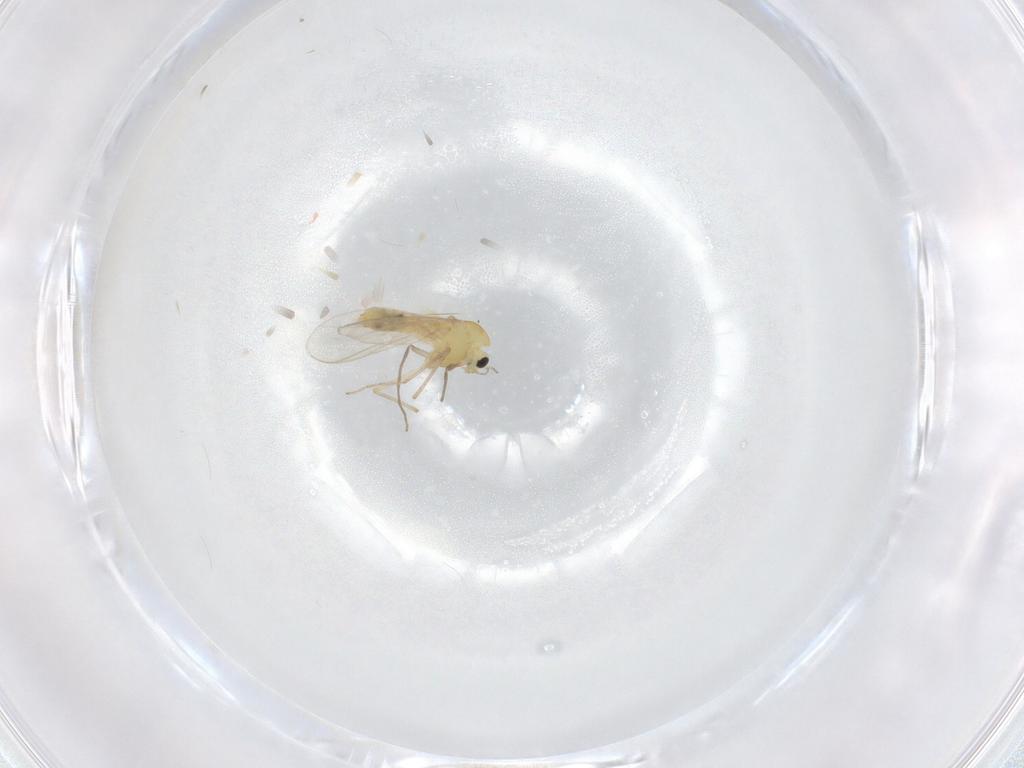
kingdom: Animalia
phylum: Arthropoda
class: Insecta
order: Diptera
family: Chironomidae
